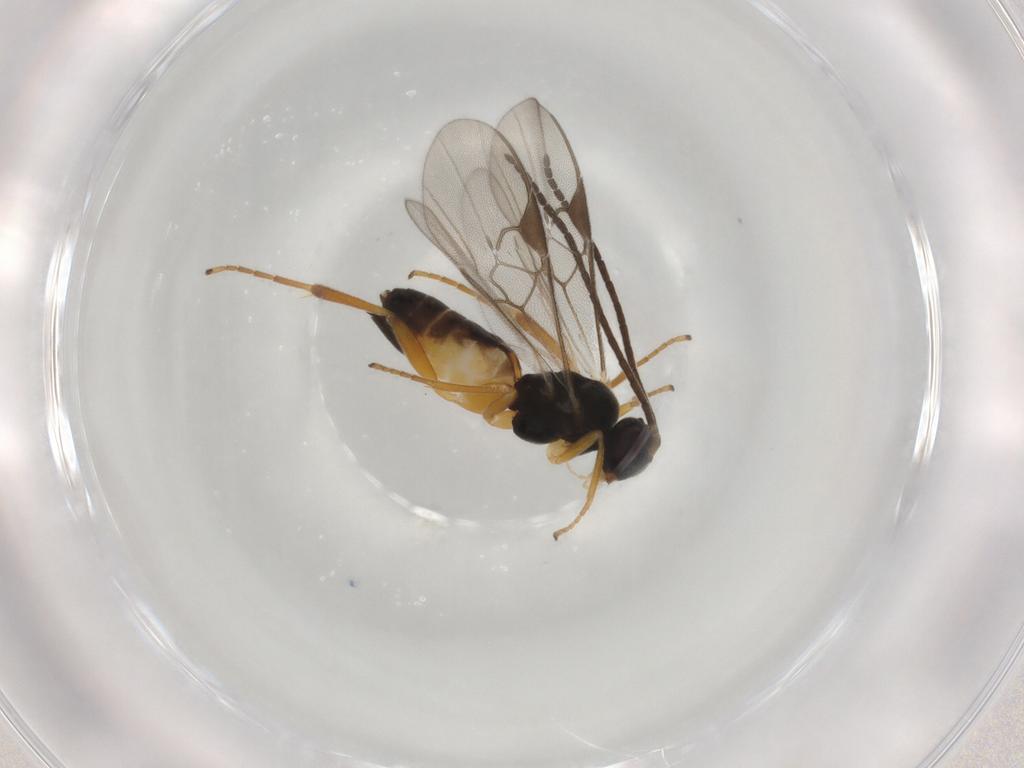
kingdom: Animalia
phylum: Arthropoda
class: Insecta
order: Hymenoptera
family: Braconidae
